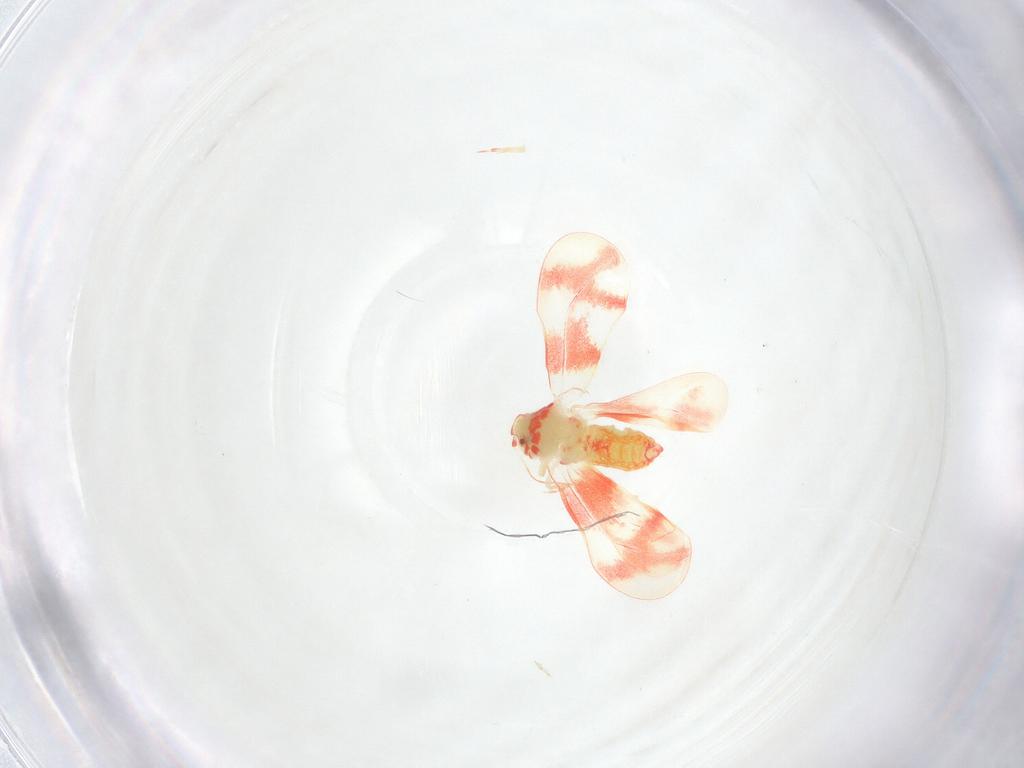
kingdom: Animalia
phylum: Arthropoda
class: Insecta
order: Hemiptera
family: Aleyrodidae
